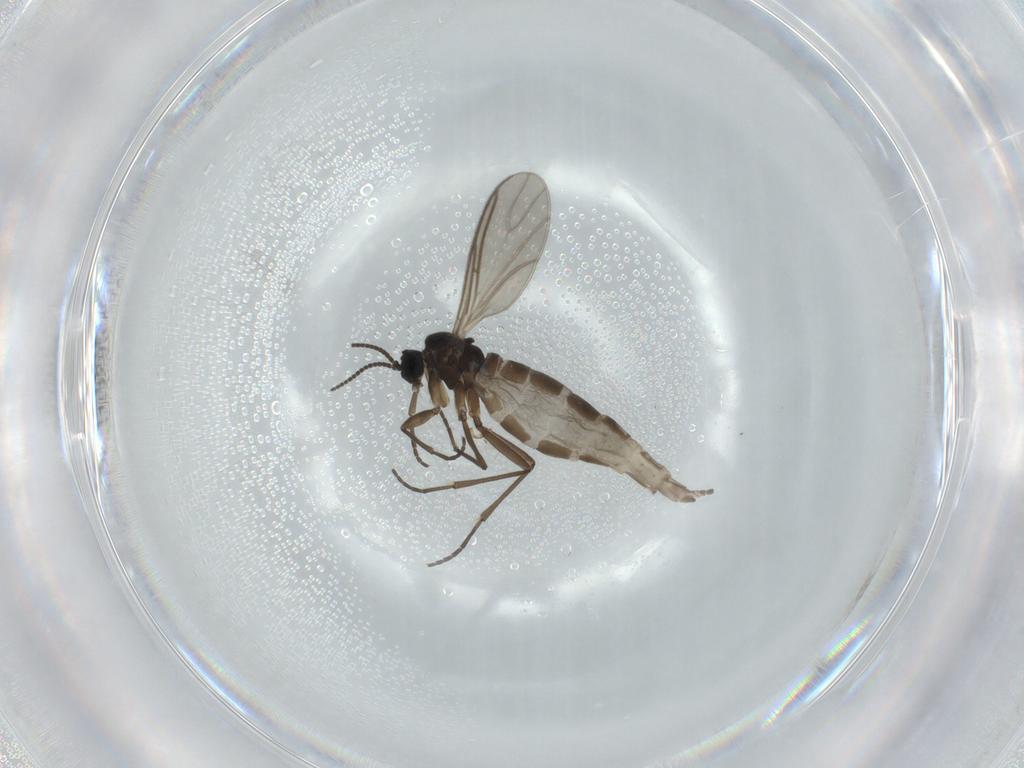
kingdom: Animalia
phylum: Arthropoda
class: Insecta
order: Diptera
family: Sciaridae
